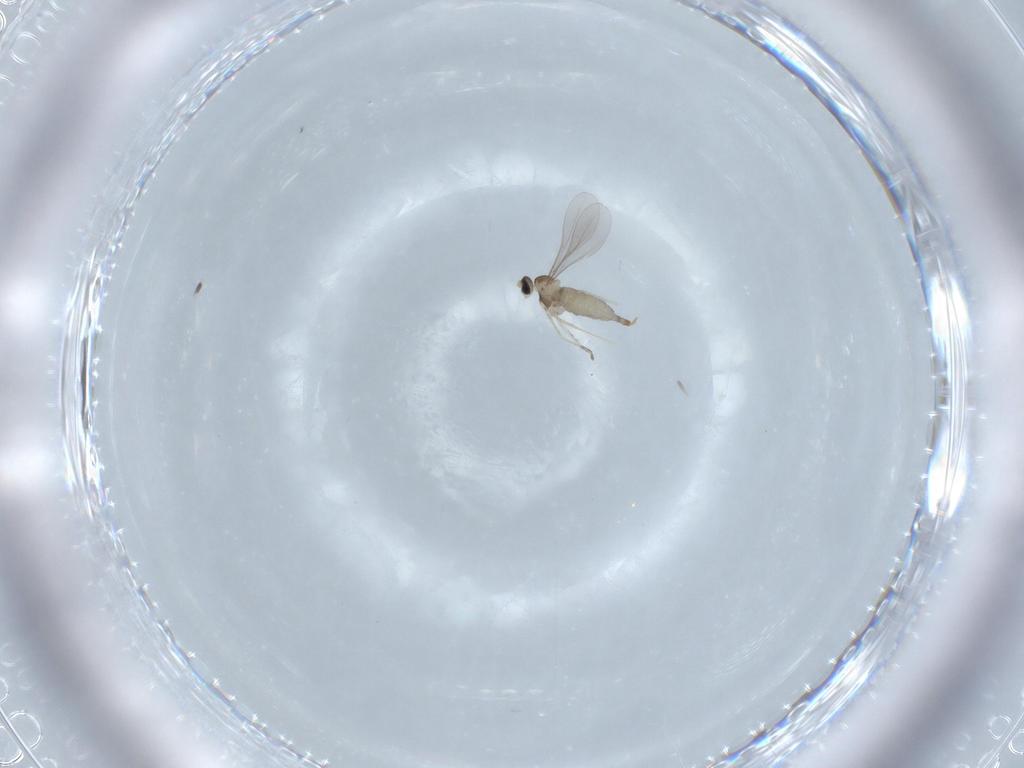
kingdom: Animalia
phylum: Arthropoda
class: Insecta
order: Diptera
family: Cecidomyiidae
